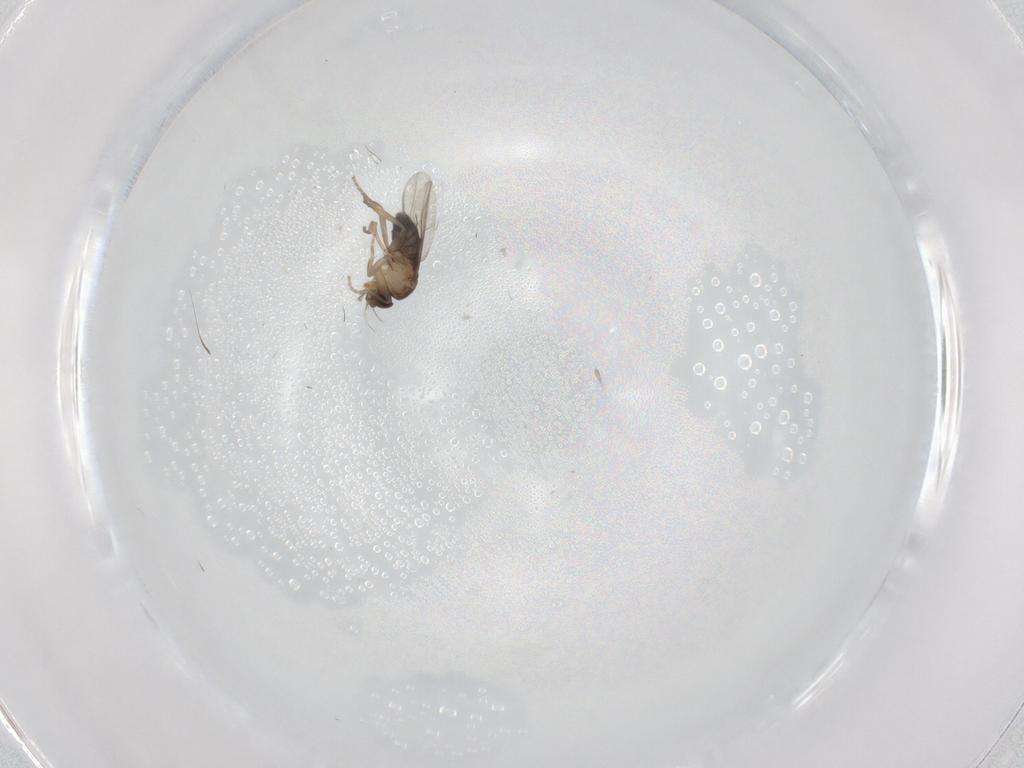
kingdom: Animalia
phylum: Arthropoda
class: Insecta
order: Diptera
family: Phoridae
